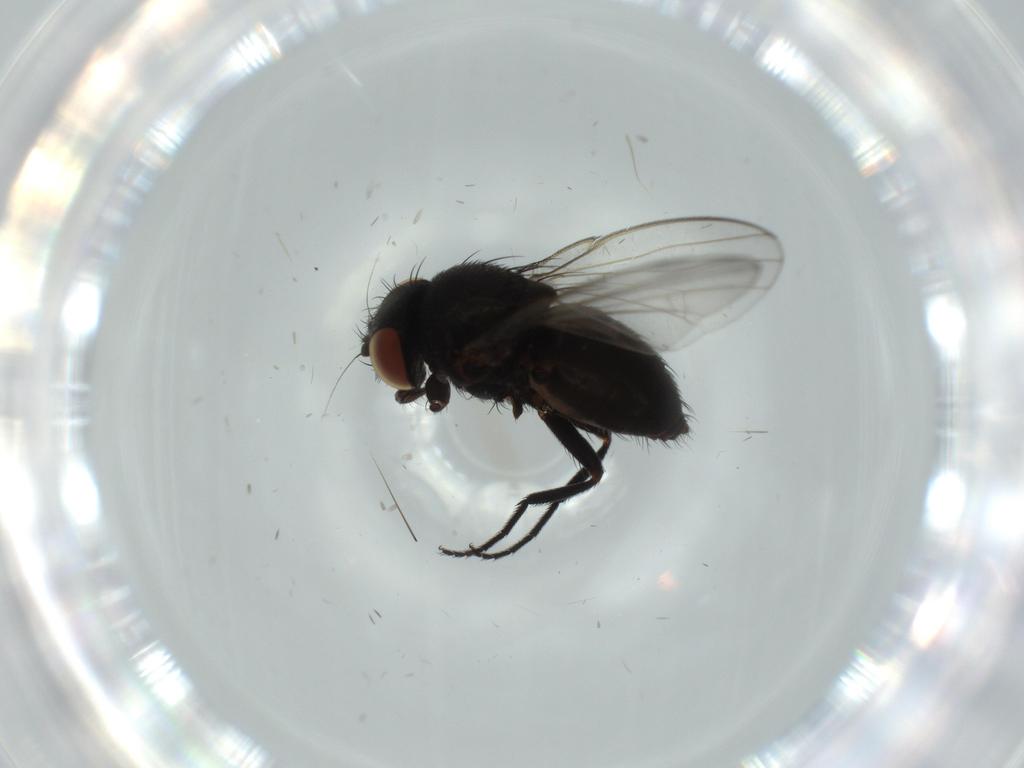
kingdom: Animalia
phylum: Arthropoda
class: Insecta
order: Diptera
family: Milichiidae
